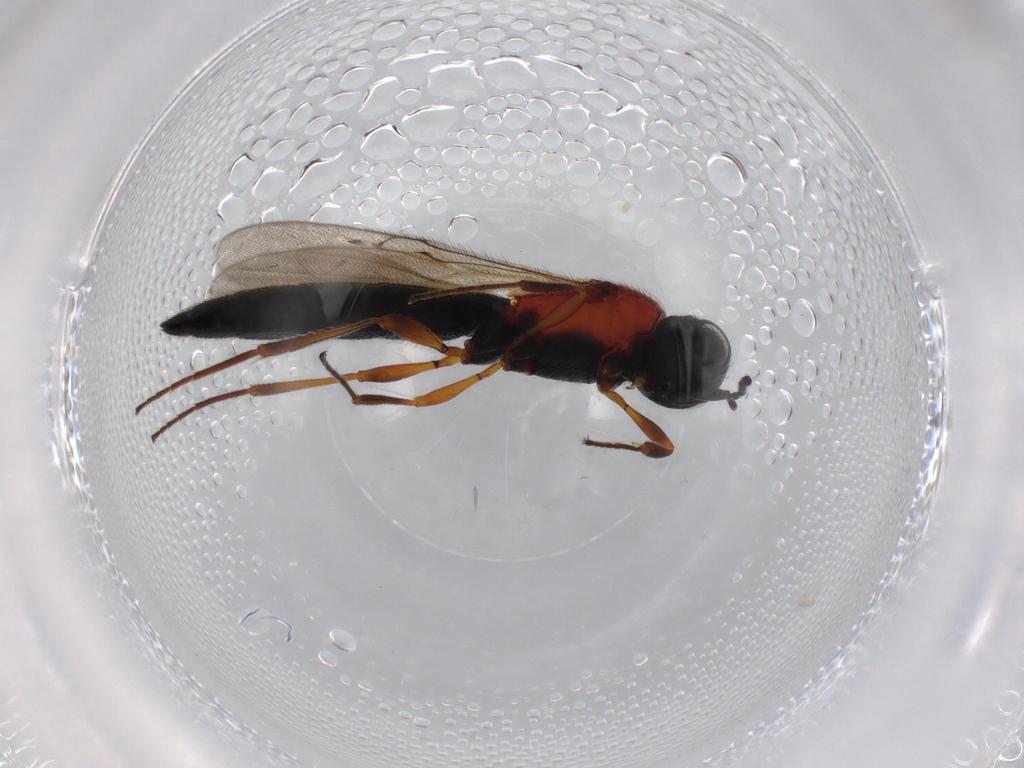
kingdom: Animalia
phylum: Arthropoda
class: Insecta
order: Hymenoptera
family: Scelionidae
